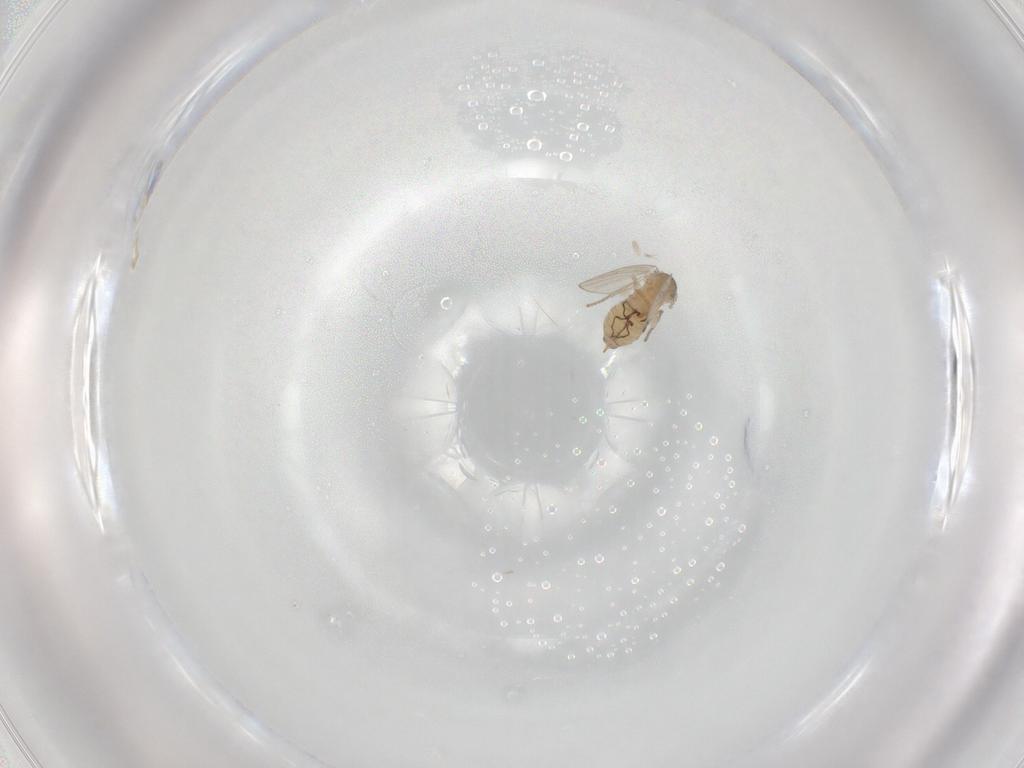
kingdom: Animalia
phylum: Arthropoda
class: Insecta
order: Diptera
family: Psychodidae
